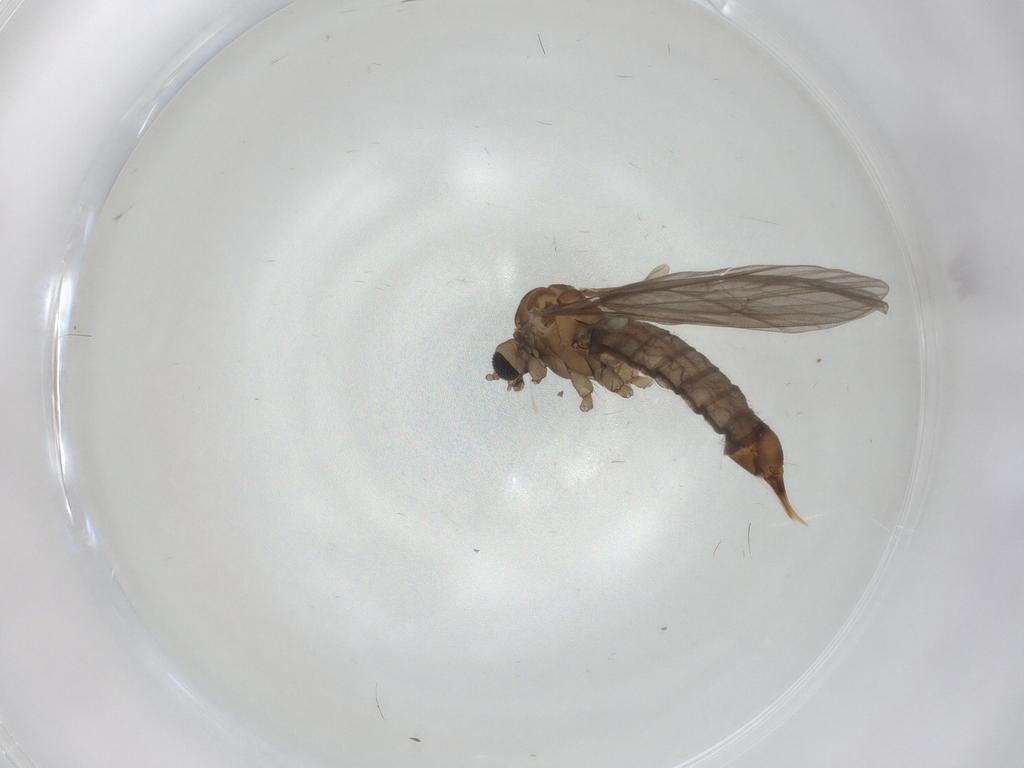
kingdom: Animalia
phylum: Arthropoda
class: Insecta
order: Diptera
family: Limoniidae
